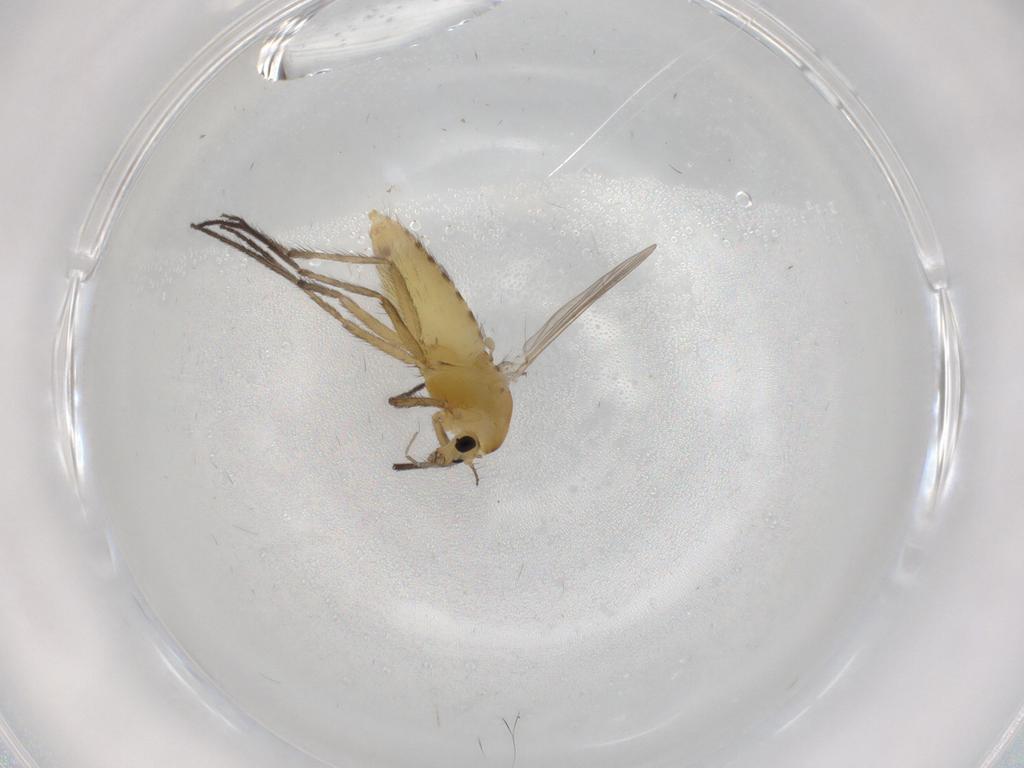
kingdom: Animalia
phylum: Arthropoda
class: Insecta
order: Diptera
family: Chironomidae
